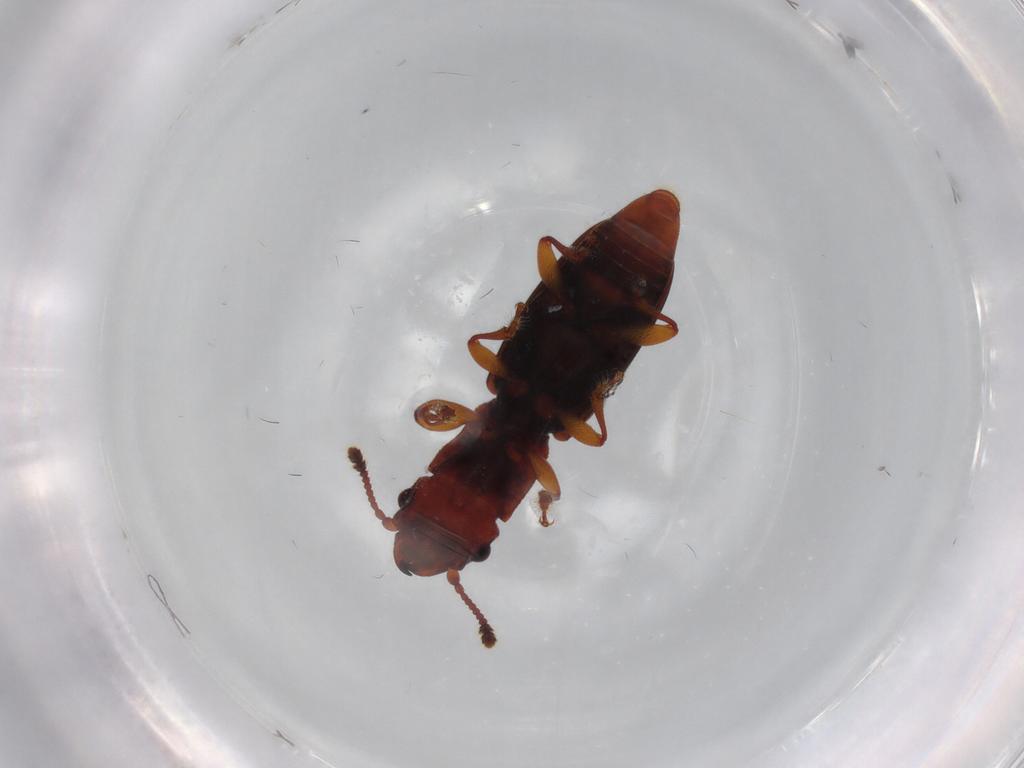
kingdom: Animalia
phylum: Arthropoda
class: Insecta
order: Coleoptera
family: Monotomidae
